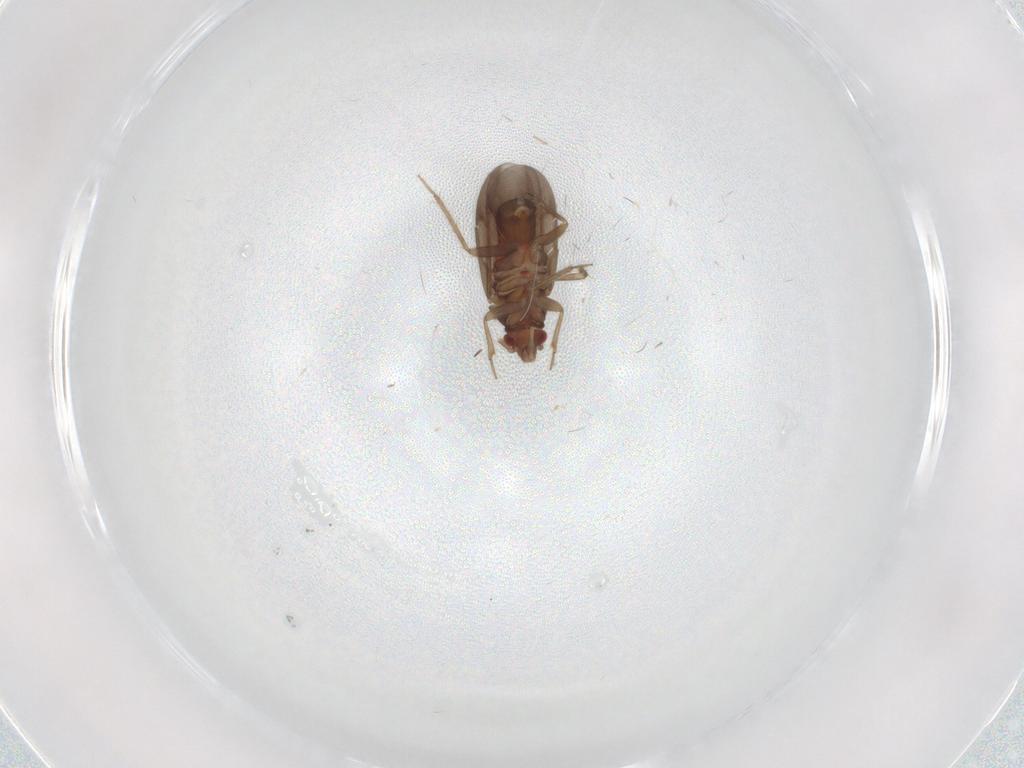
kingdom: Animalia
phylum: Arthropoda
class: Insecta
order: Hemiptera
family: Ceratocombidae
